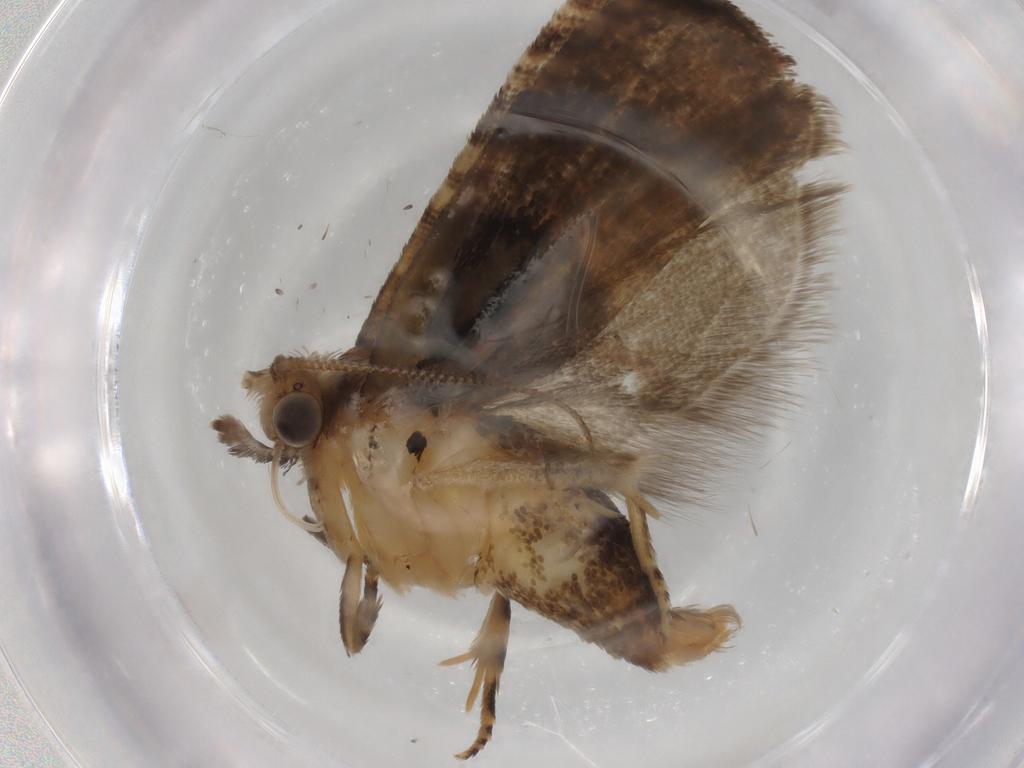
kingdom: Animalia
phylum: Arthropoda
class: Insecta
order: Lepidoptera
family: Tortricidae
